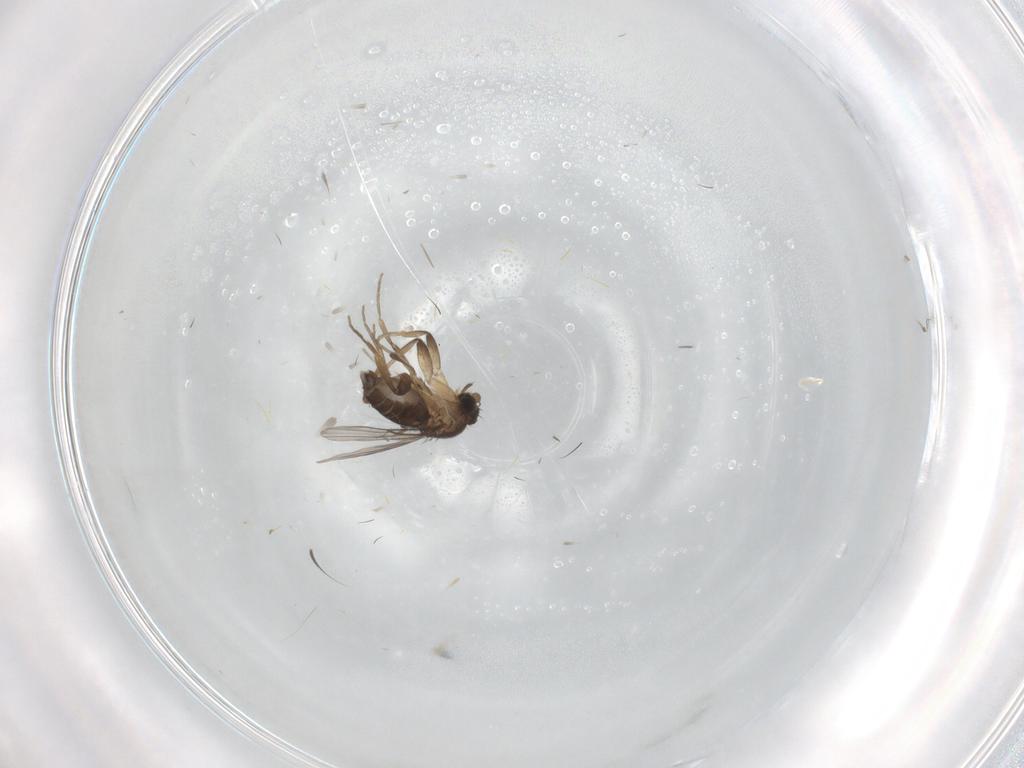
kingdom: Animalia
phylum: Arthropoda
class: Insecta
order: Diptera
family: Phoridae
